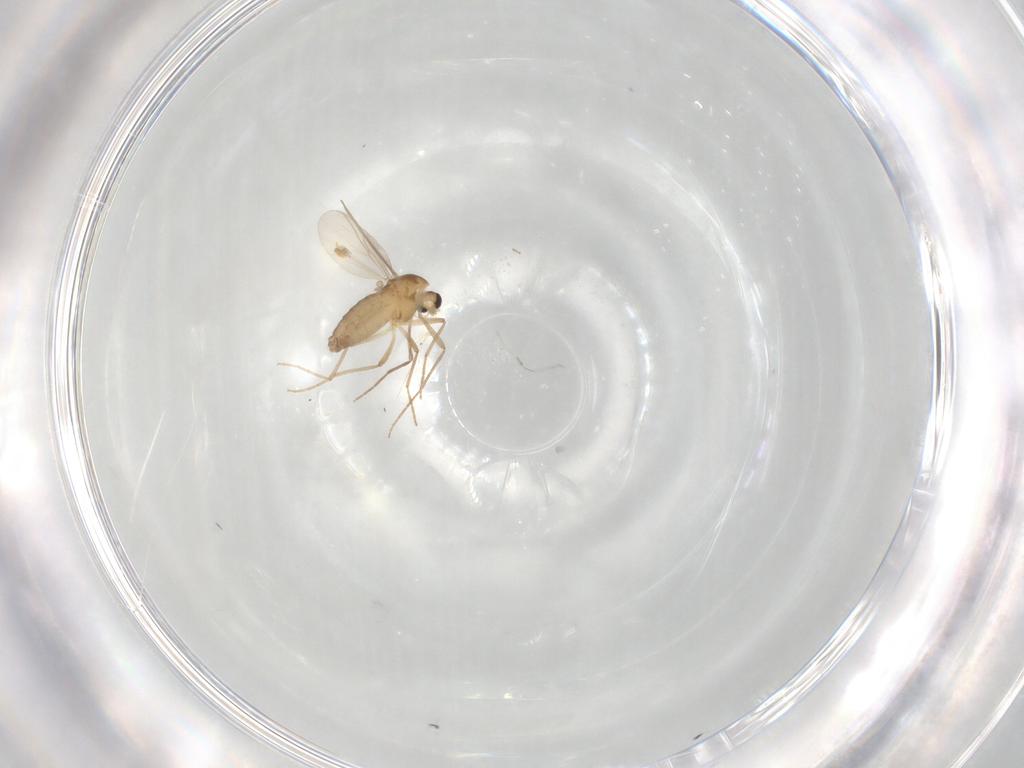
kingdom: Animalia
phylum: Arthropoda
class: Insecta
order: Diptera
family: Chironomidae
